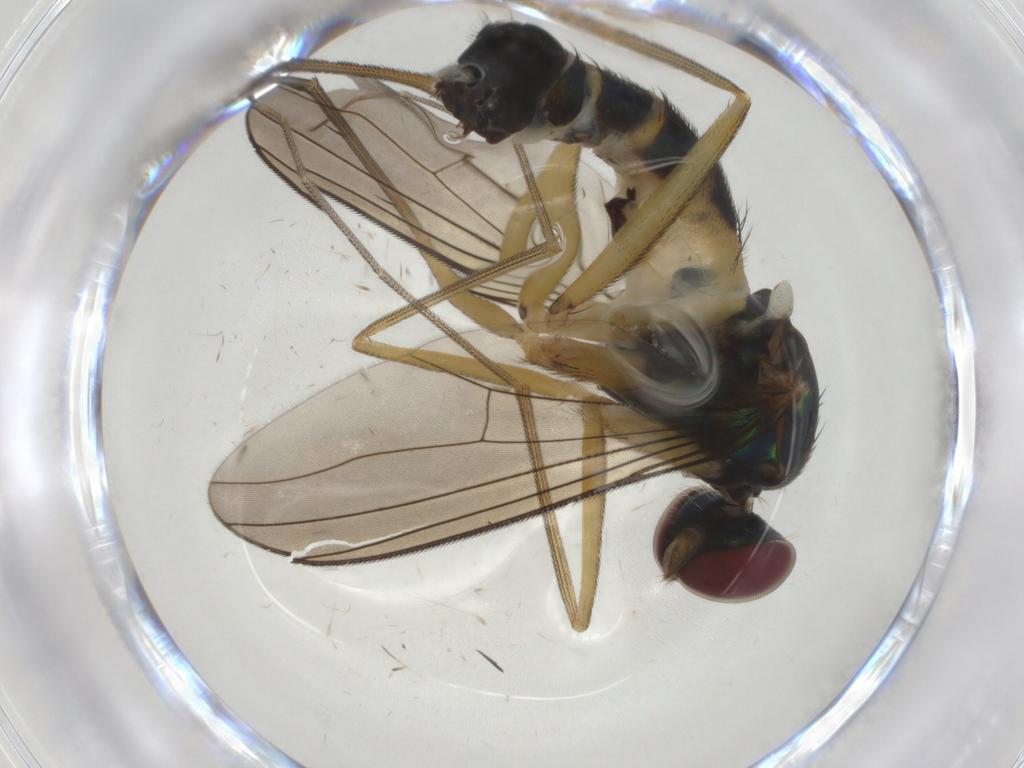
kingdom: Animalia
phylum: Arthropoda
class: Insecta
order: Diptera
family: Dolichopodidae
